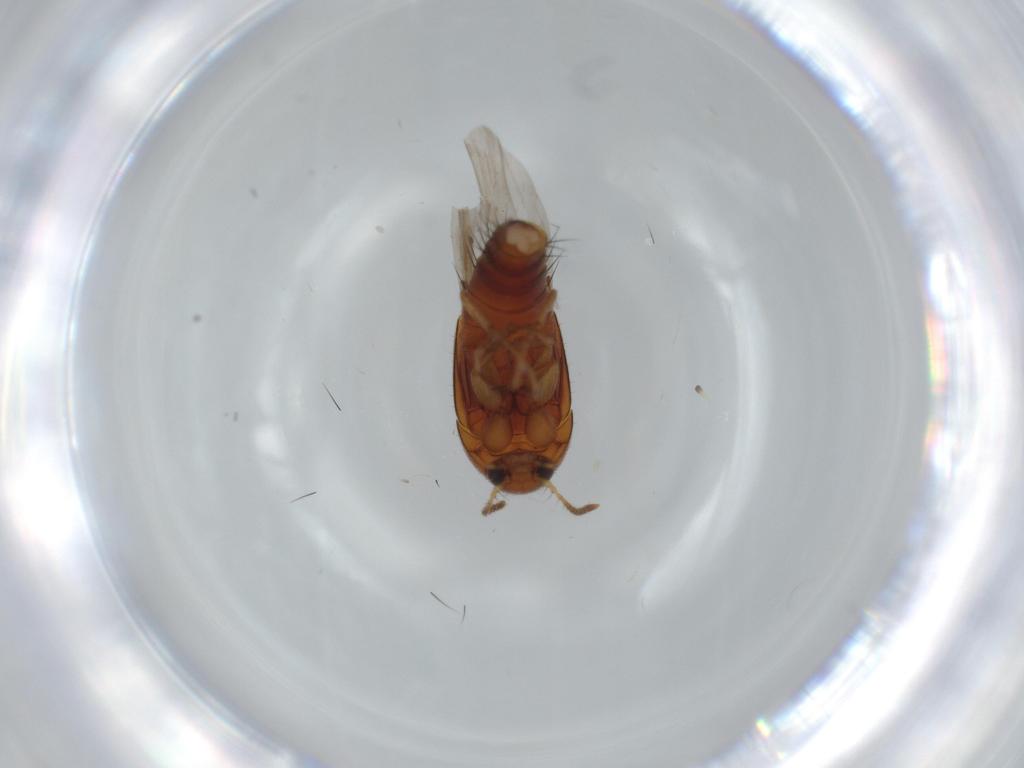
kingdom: Animalia
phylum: Arthropoda
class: Insecta
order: Coleoptera
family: Staphylinidae
